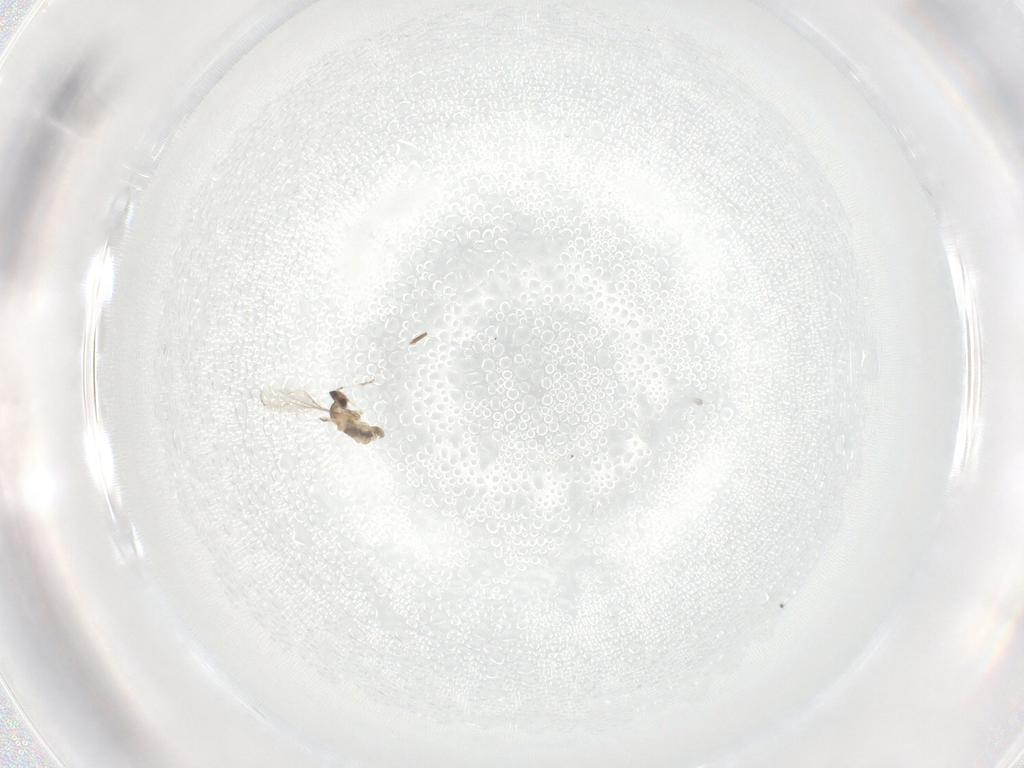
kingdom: Animalia
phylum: Arthropoda
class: Insecta
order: Diptera
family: Cecidomyiidae
